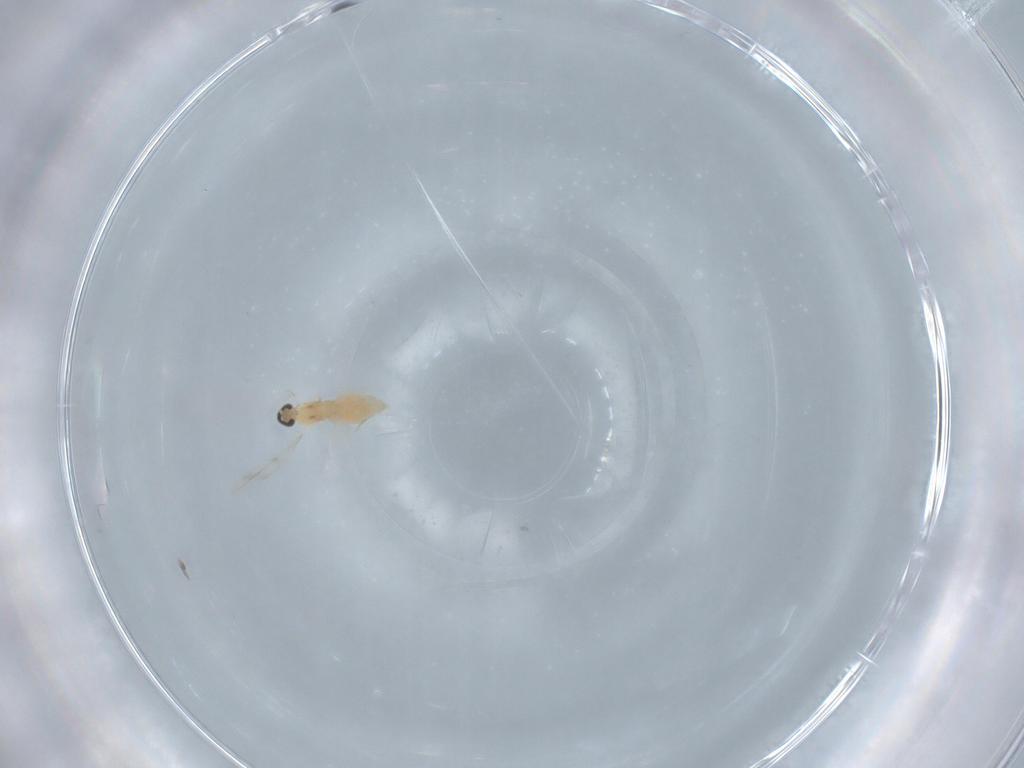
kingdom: Animalia
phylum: Arthropoda
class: Insecta
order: Diptera
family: Cecidomyiidae
